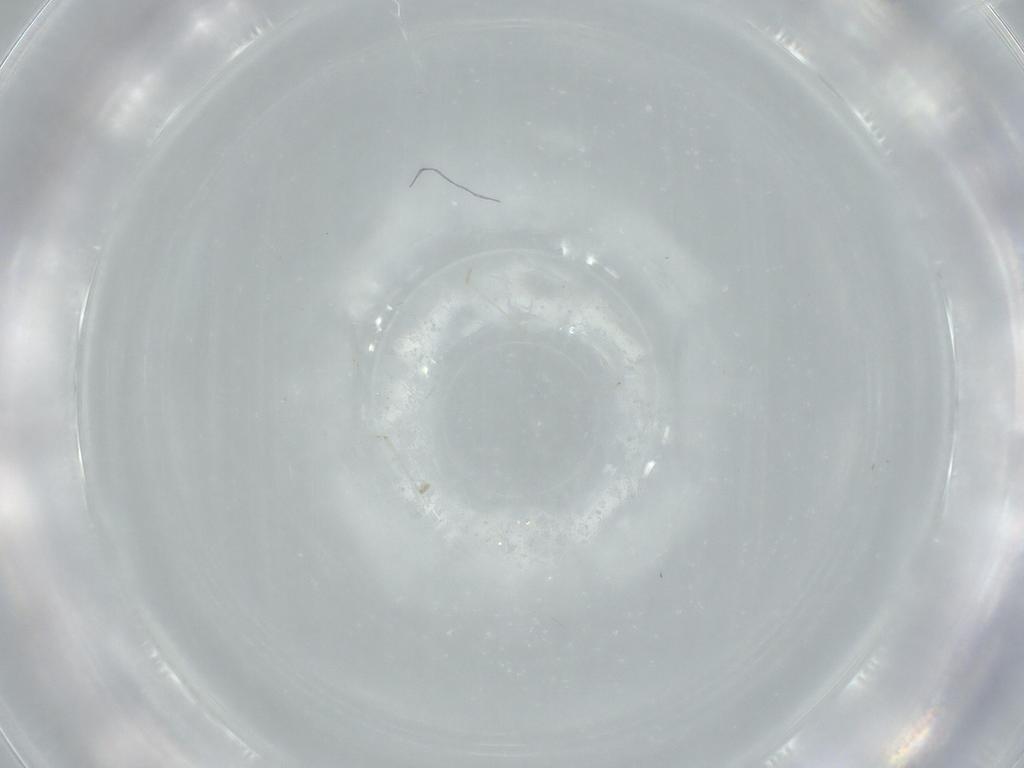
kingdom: Animalia
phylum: Arthropoda
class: Insecta
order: Diptera
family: Cecidomyiidae
